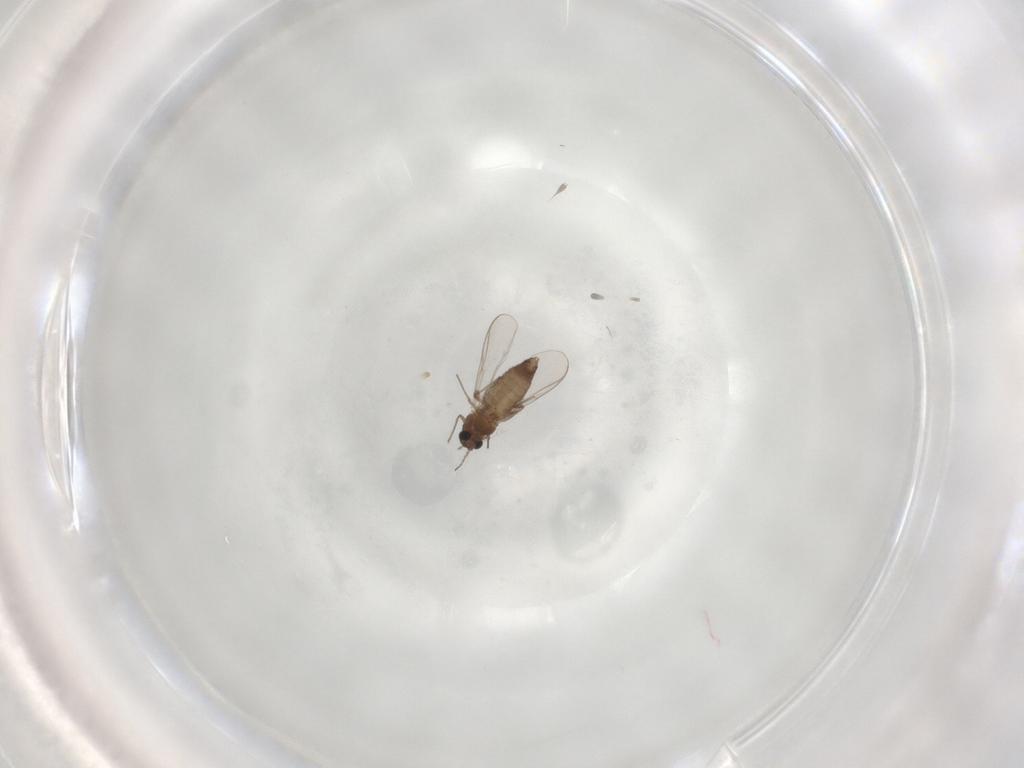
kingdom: Animalia
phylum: Arthropoda
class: Insecta
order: Diptera
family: Chironomidae
